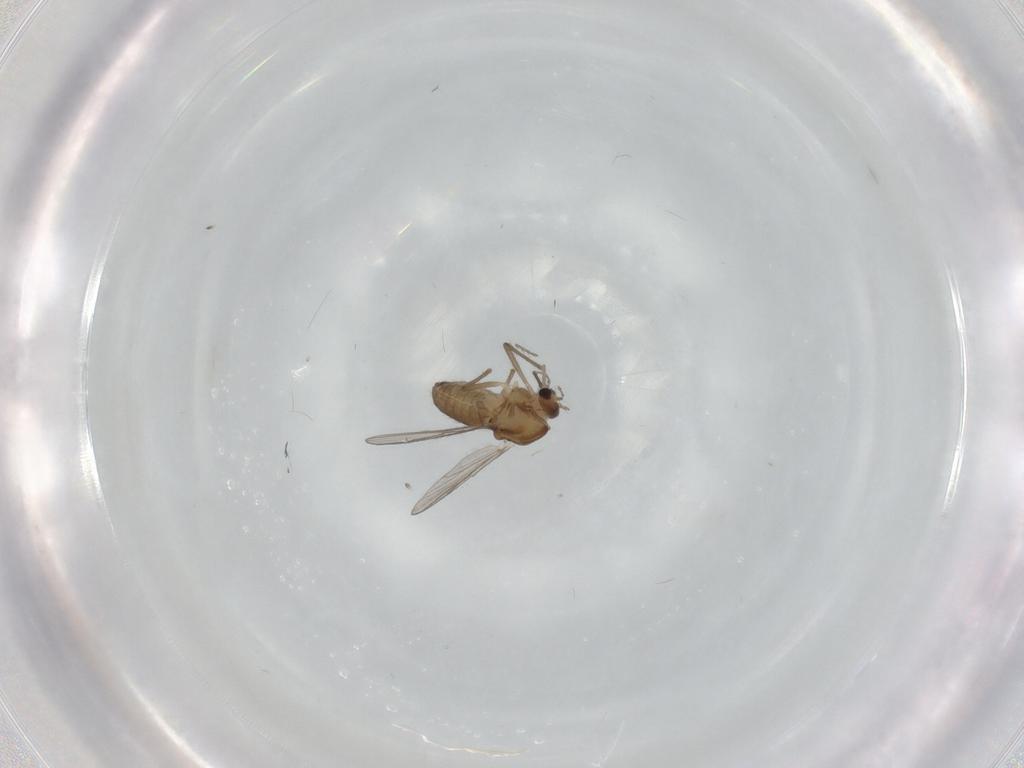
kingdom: Animalia
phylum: Arthropoda
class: Insecta
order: Diptera
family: Chironomidae
